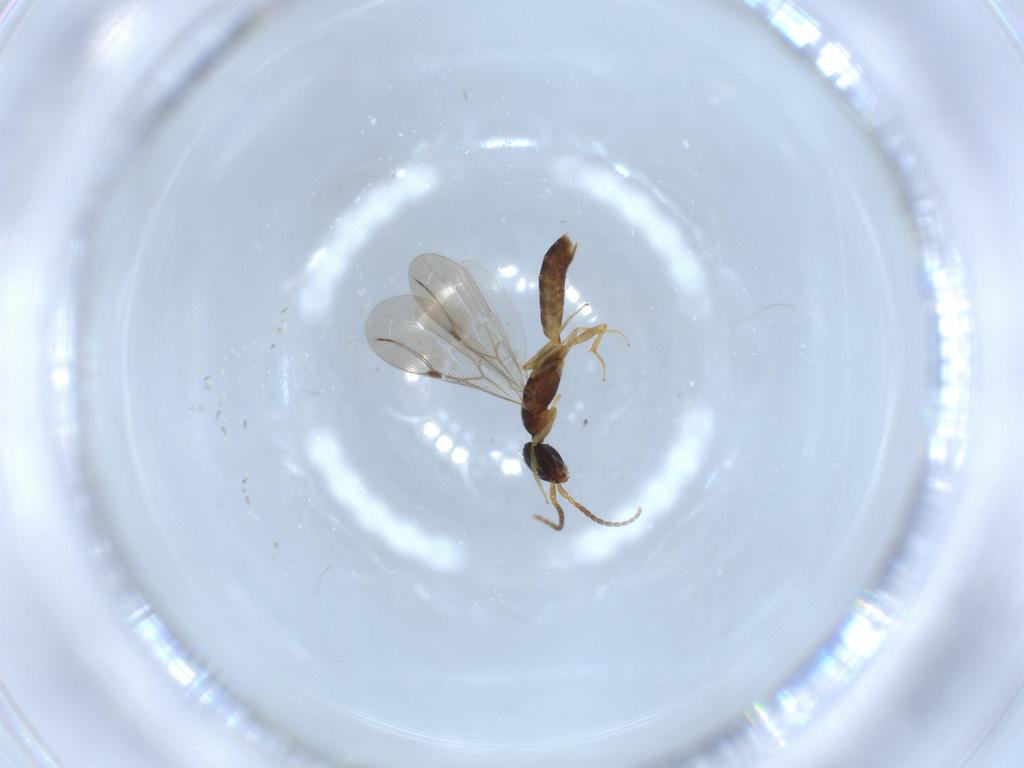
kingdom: Animalia
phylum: Arthropoda
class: Insecta
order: Hymenoptera
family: Bethylidae
